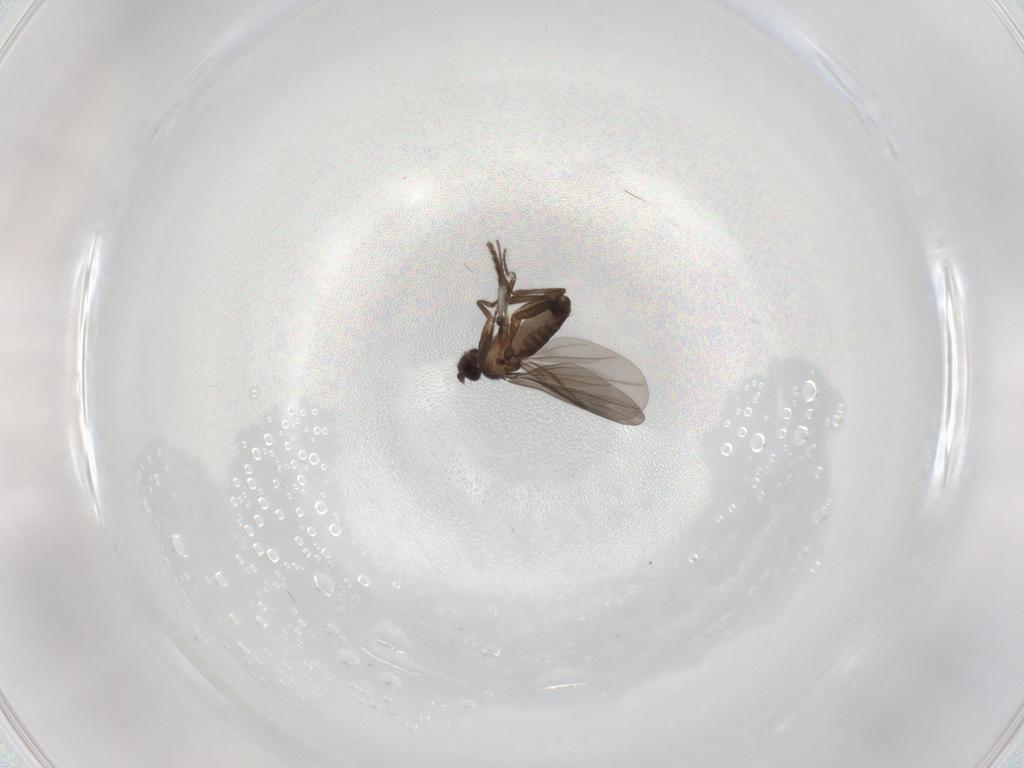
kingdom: Animalia
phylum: Arthropoda
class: Insecta
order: Diptera
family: Phoridae
